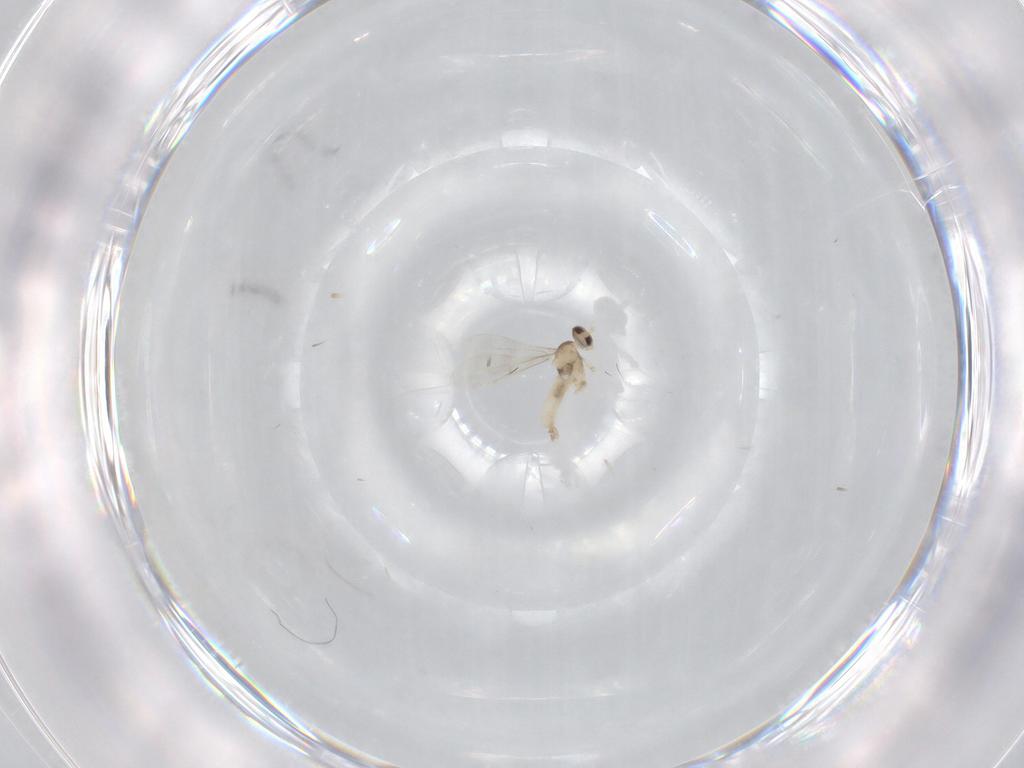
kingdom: Animalia
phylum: Arthropoda
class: Insecta
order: Diptera
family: Cecidomyiidae
